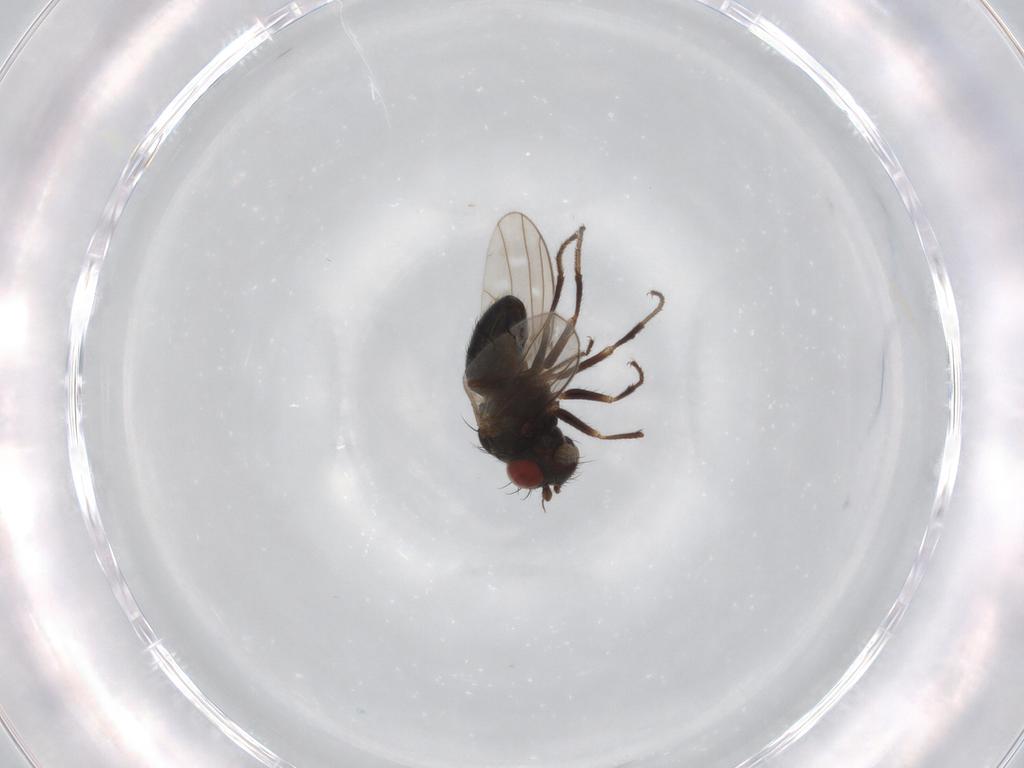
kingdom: Animalia
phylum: Arthropoda
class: Insecta
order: Diptera
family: Ephydridae
